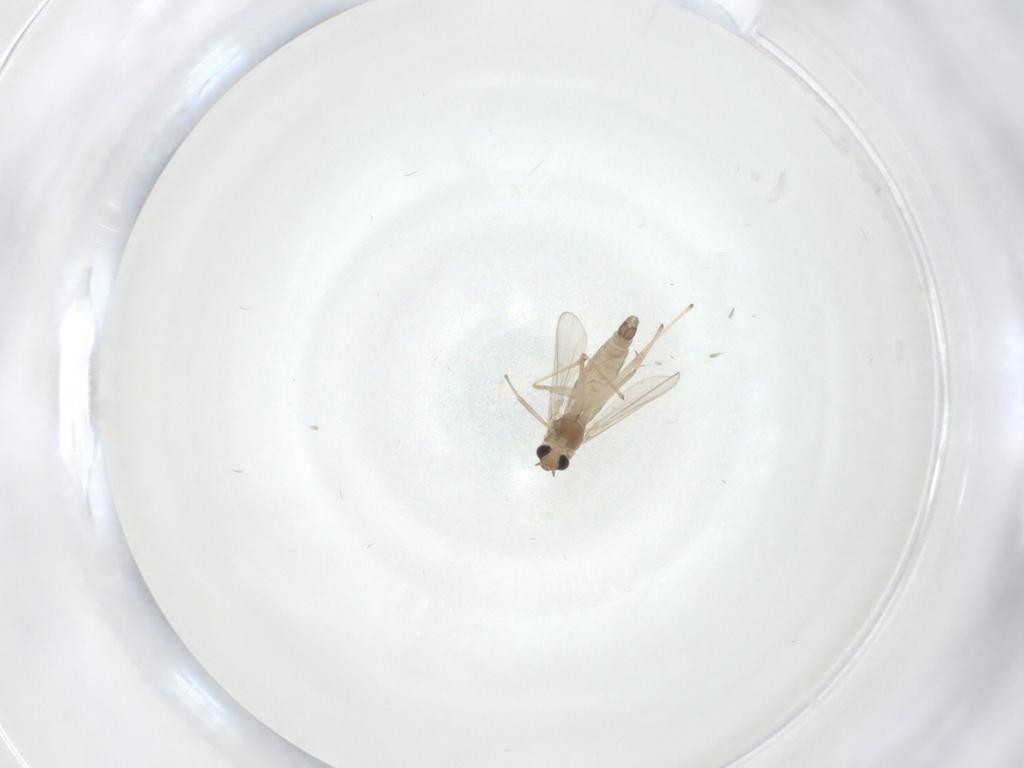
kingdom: Animalia
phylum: Arthropoda
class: Insecta
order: Diptera
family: Chironomidae
